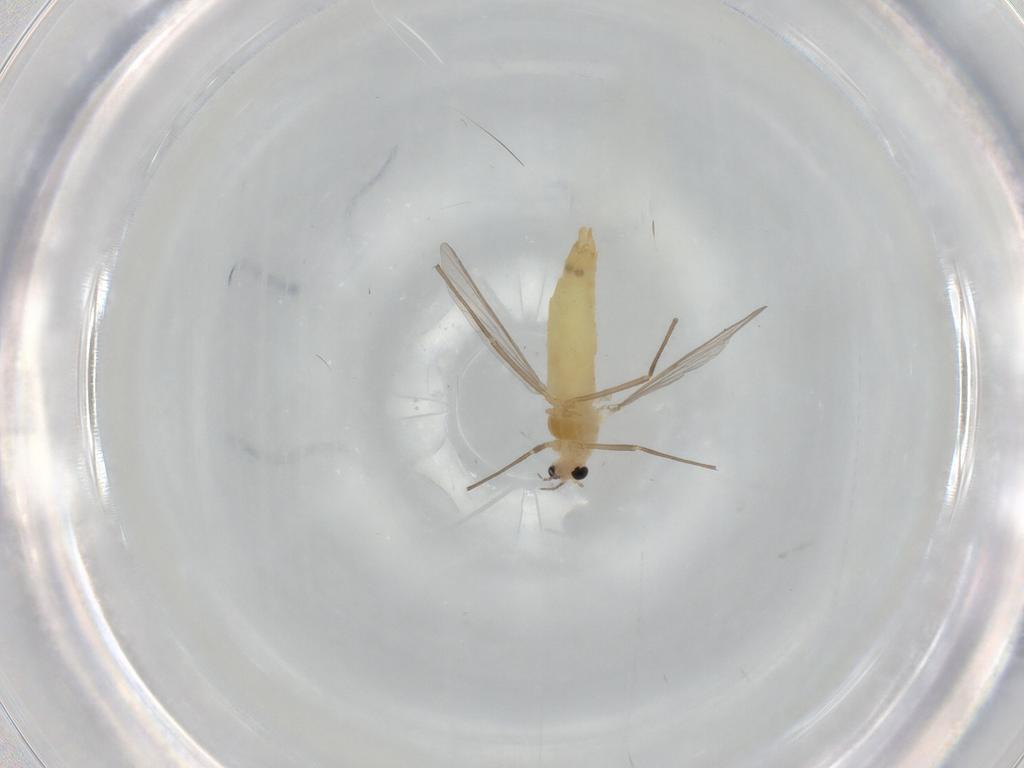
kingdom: Animalia
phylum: Arthropoda
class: Insecta
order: Diptera
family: Chironomidae
